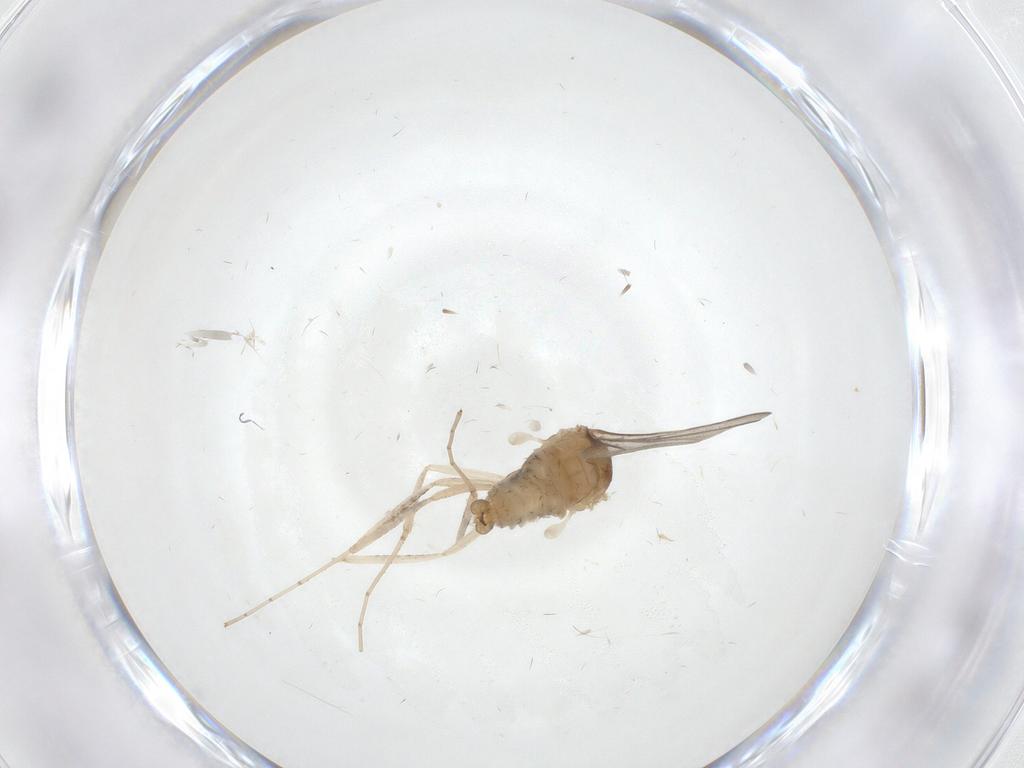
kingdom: Animalia
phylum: Arthropoda
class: Insecta
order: Diptera
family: Cecidomyiidae
